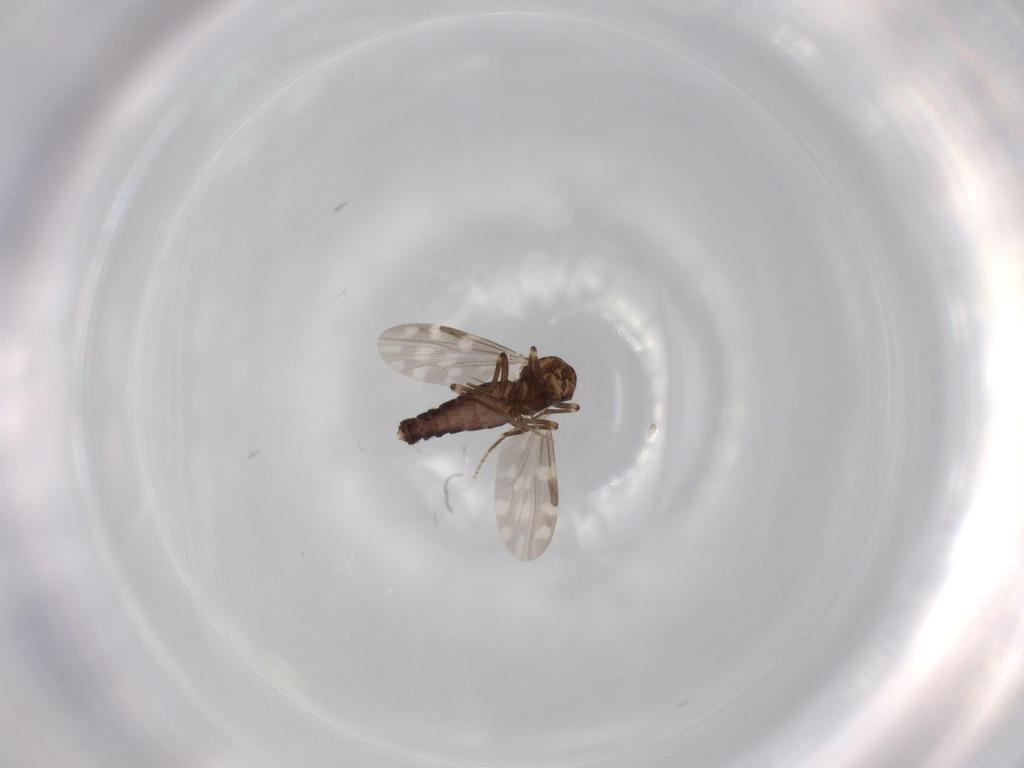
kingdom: Animalia
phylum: Arthropoda
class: Insecta
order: Diptera
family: Ceratopogonidae
